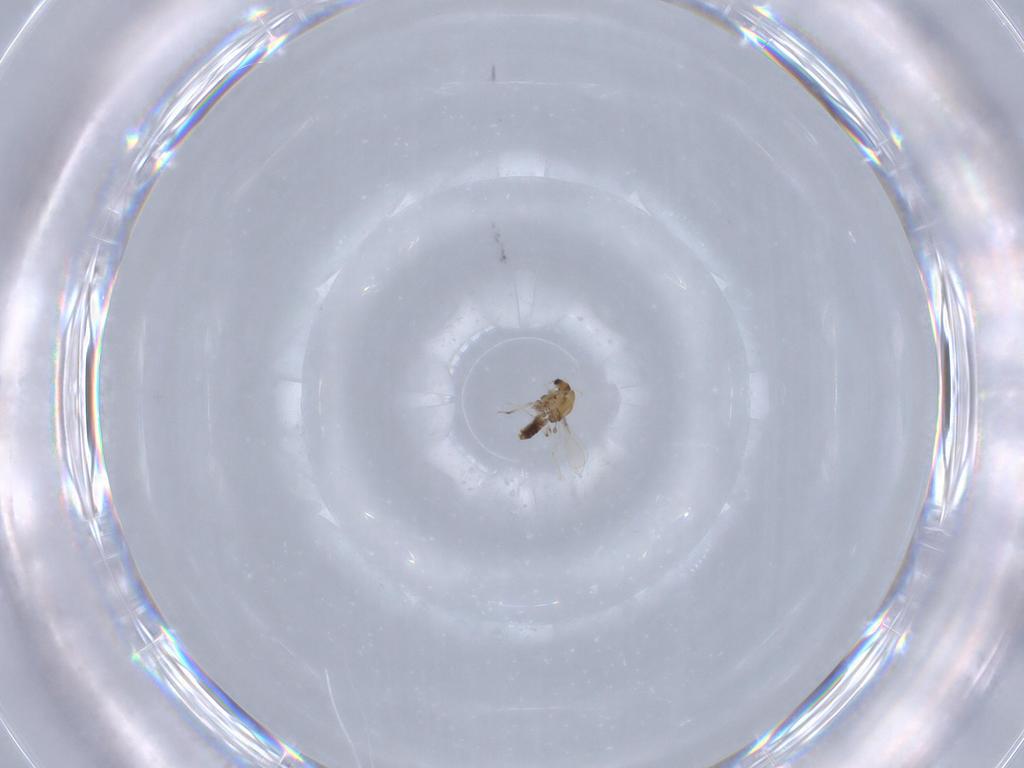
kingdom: Animalia
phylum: Arthropoda
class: Insecta
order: Diptera
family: Chironomidae
